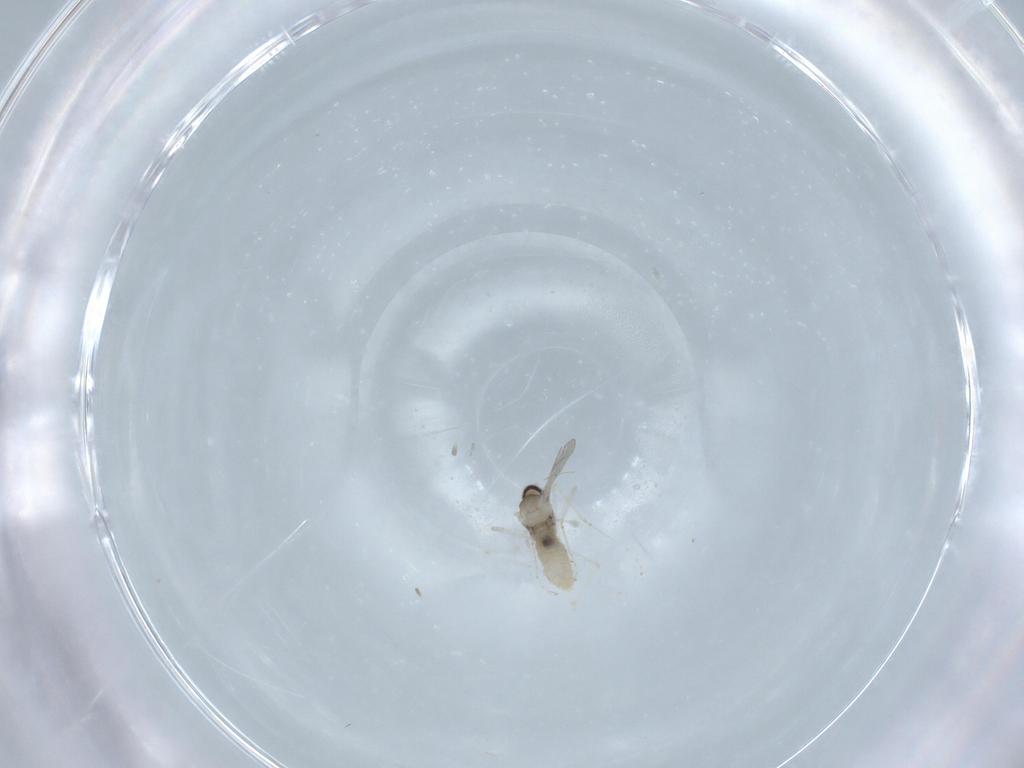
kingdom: Animalia
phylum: Arthropoda
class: Insecta
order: Diptera
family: Cecidomyiidae
